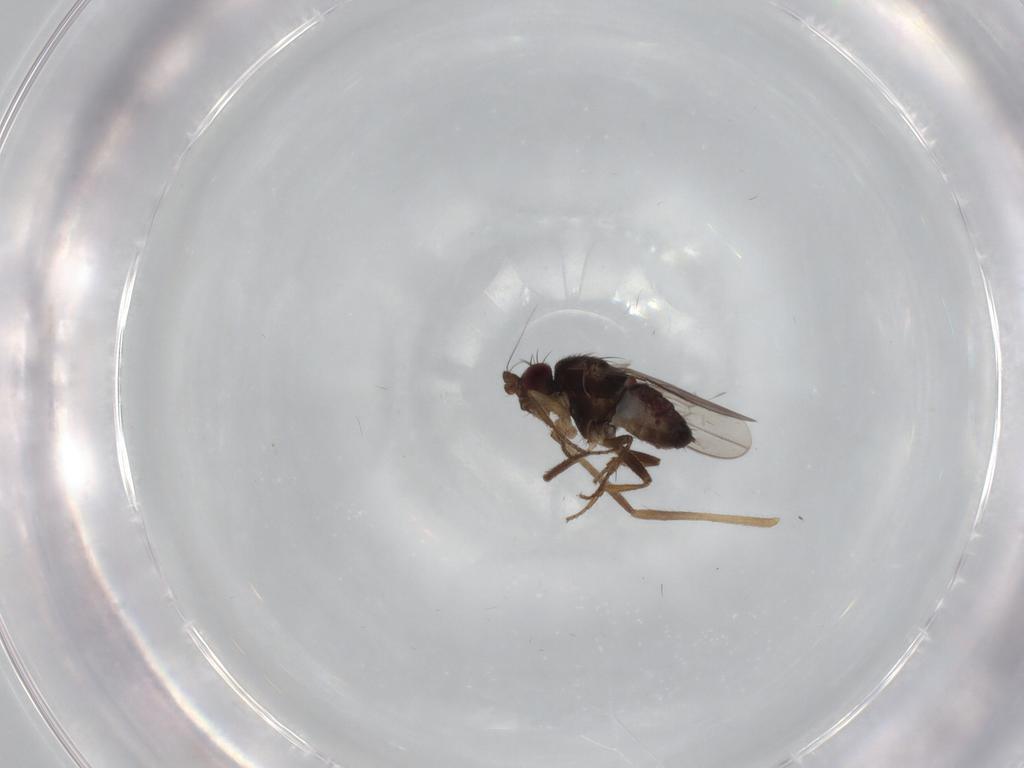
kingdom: Animalia
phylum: Arthropoda
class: Insecta
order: Diptera
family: Chironomidae
